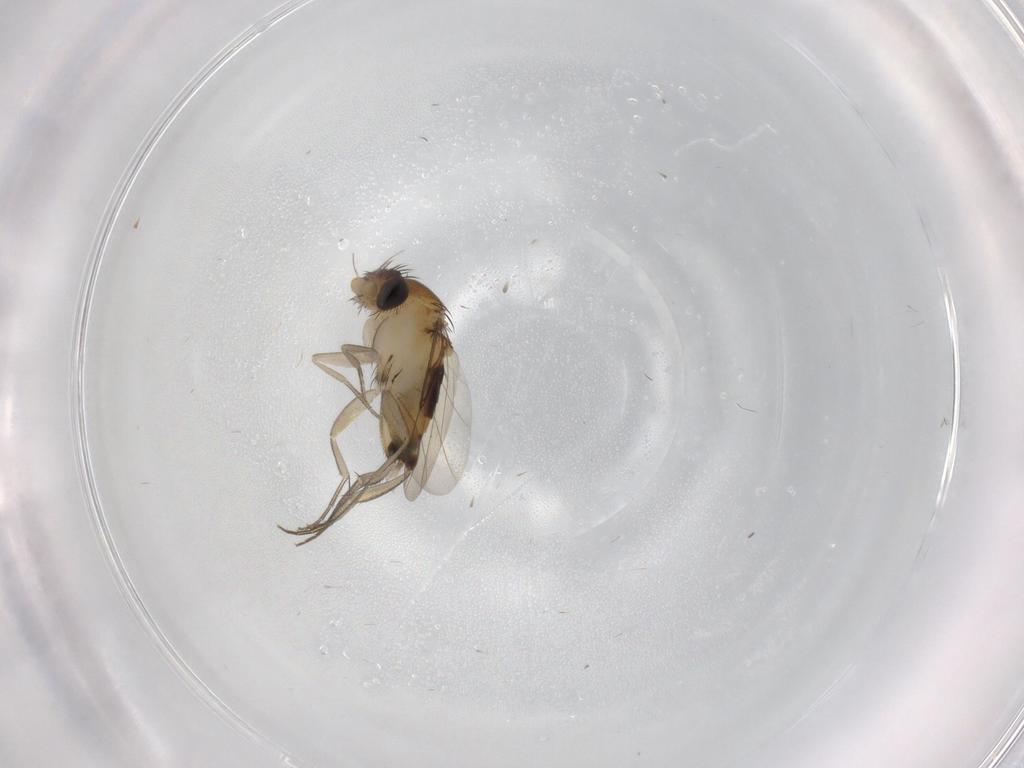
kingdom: Animalia
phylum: Arthropoda
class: Insecta
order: Diptera
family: Phoridae
